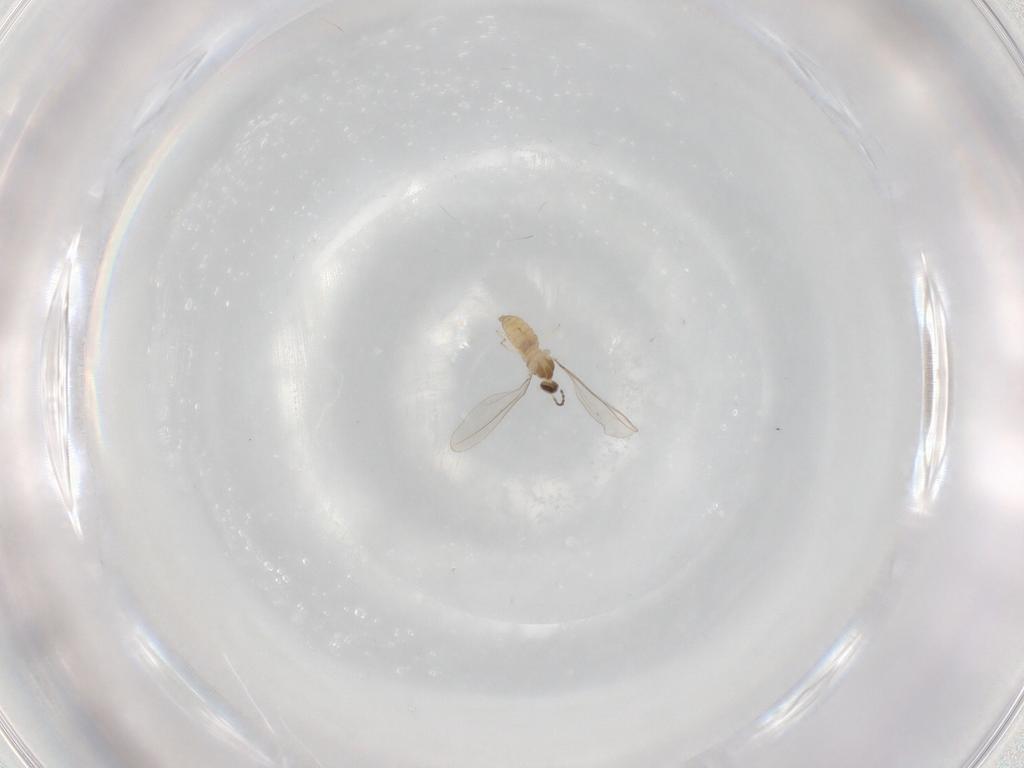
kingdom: Animalia
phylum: Arthropoda
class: Insecta
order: Diptera
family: Cecidomyiidae
